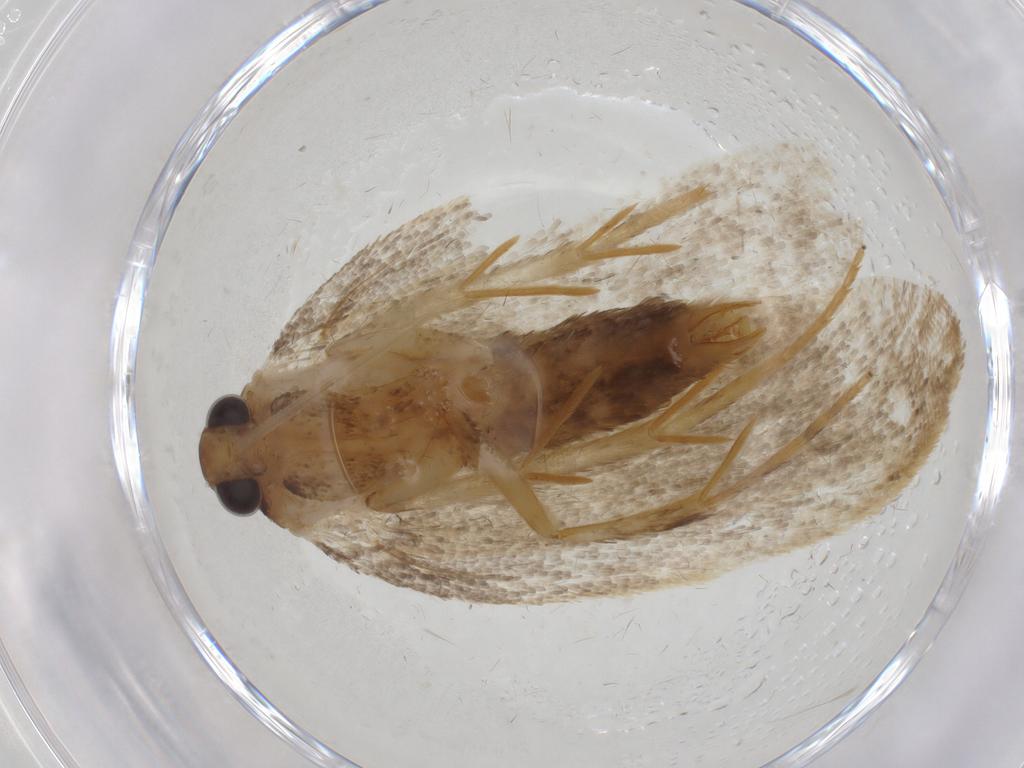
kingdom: Animalia
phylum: Arthropoda
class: Insecta
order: Lepidoptera
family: Oecophoridae
